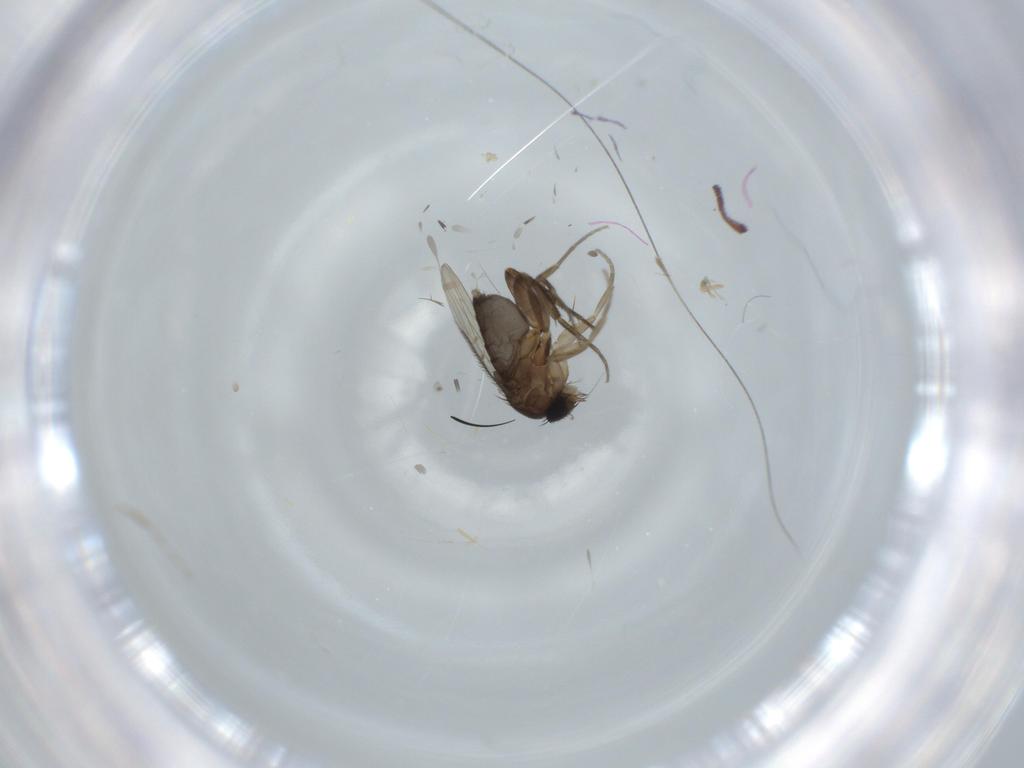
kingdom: Animalia
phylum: Arthropoda
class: Insecta
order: Diptera
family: Phoridae
